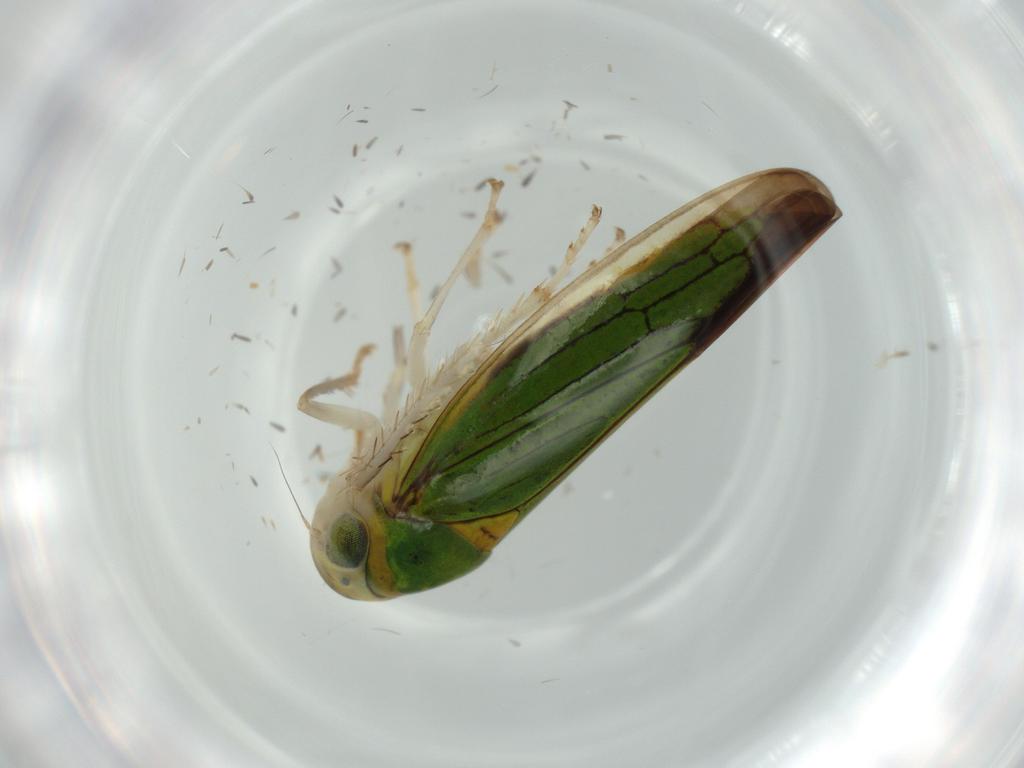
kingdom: Animalia
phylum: Arthropoda
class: Insecta
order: Hemiptera
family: Cicadellidae
